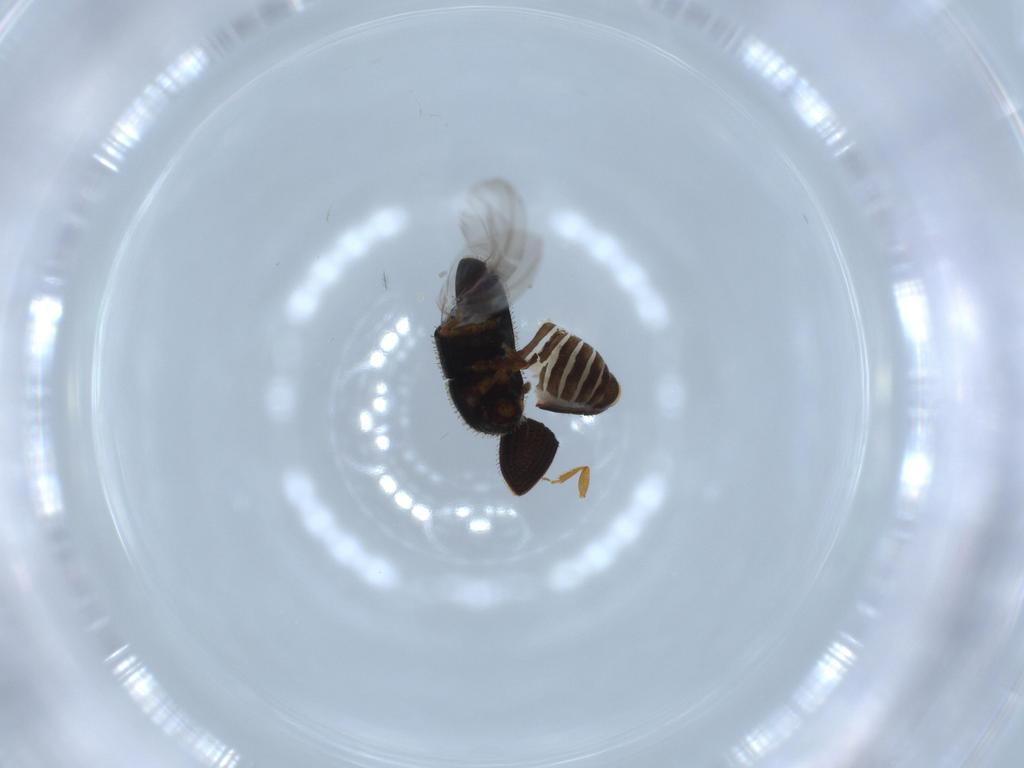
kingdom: Animalia
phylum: Arthropoda
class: Insecta
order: Coleoptera
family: Curculionidae
